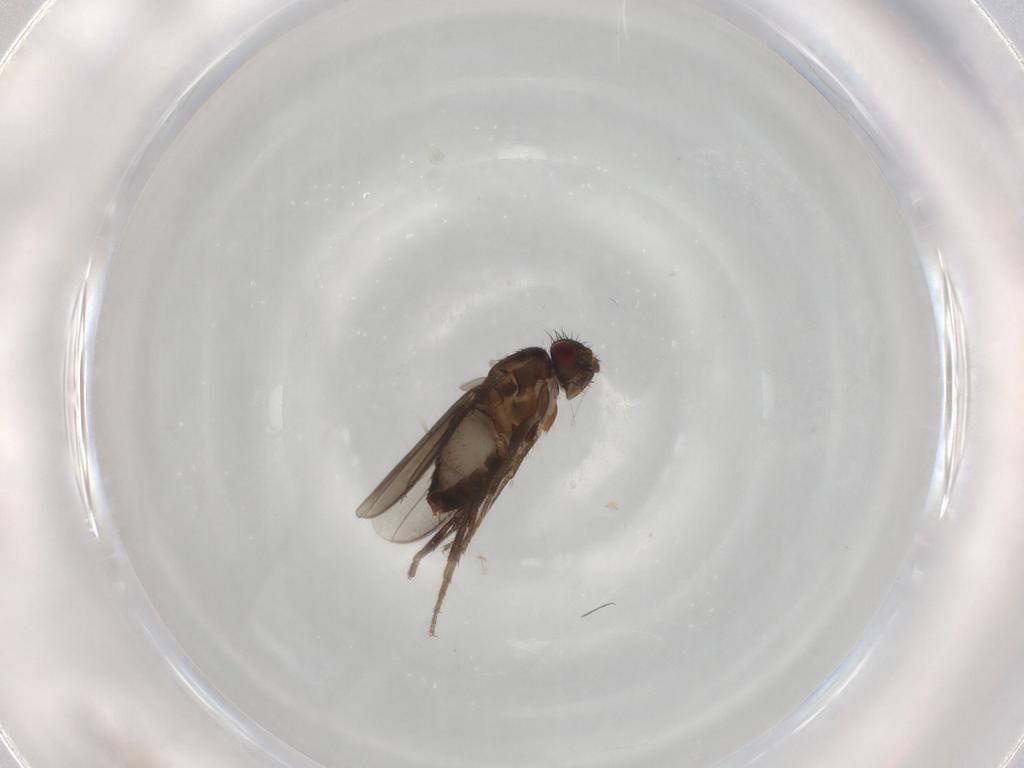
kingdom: Animalia
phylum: Arthropoda
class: Insecta
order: Diptera
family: Sphaeroceridae
